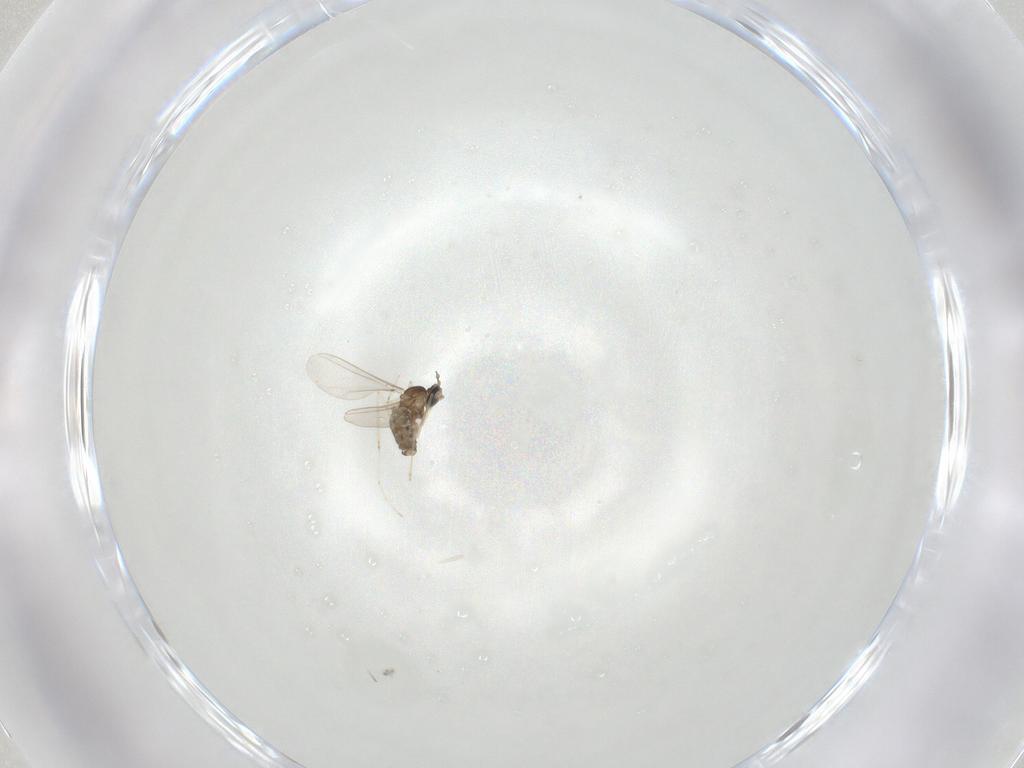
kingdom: Animalia
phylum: Arthropoda
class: Insecta
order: Diptera
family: Cecidomyiidae
